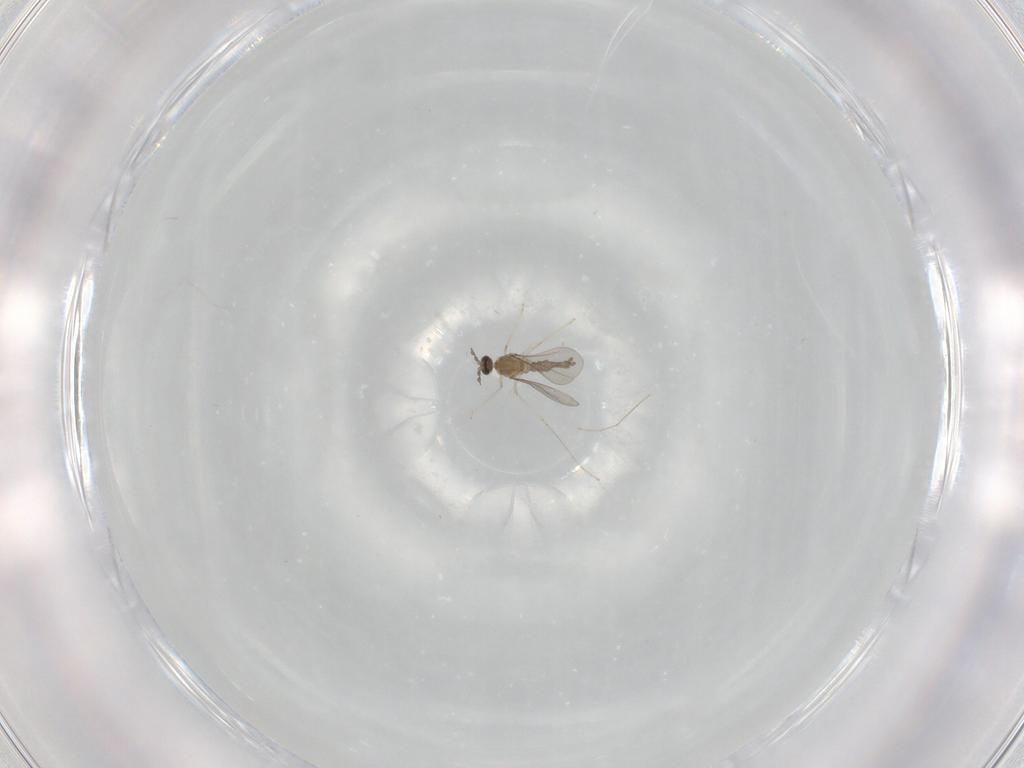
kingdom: Animalia
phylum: Arthropoda
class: Insecta
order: Diptera
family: Cecidomyiidae
